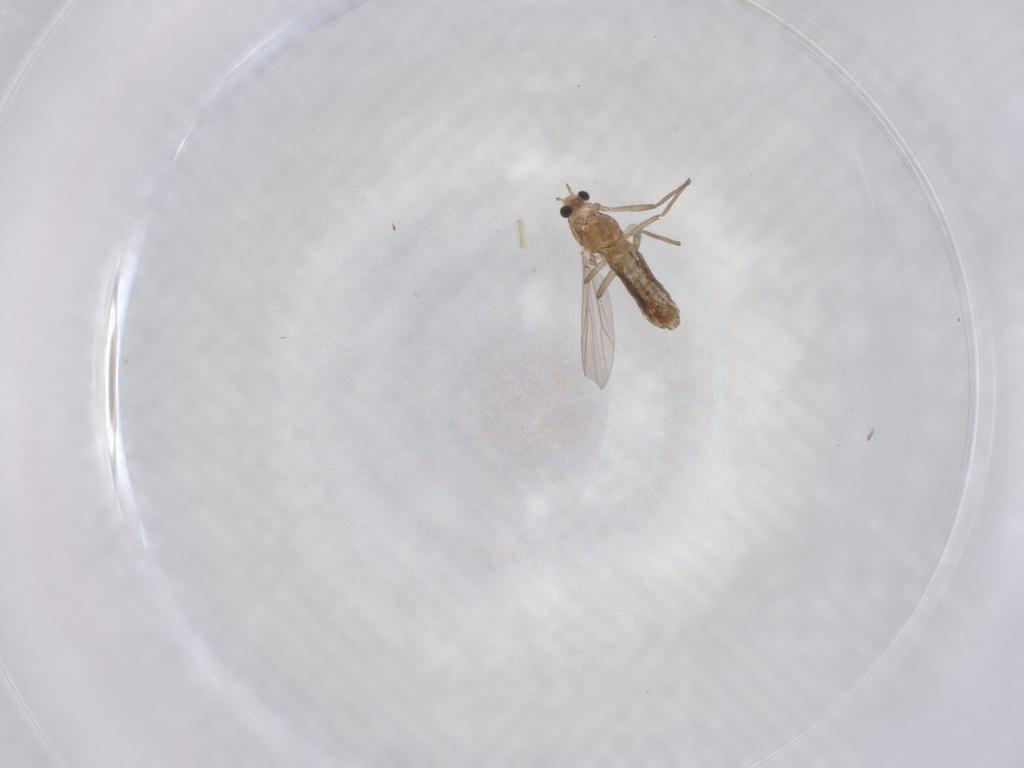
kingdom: Animalia
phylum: Arthropoda
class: Insecta
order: Diptera
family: Chironomidae
